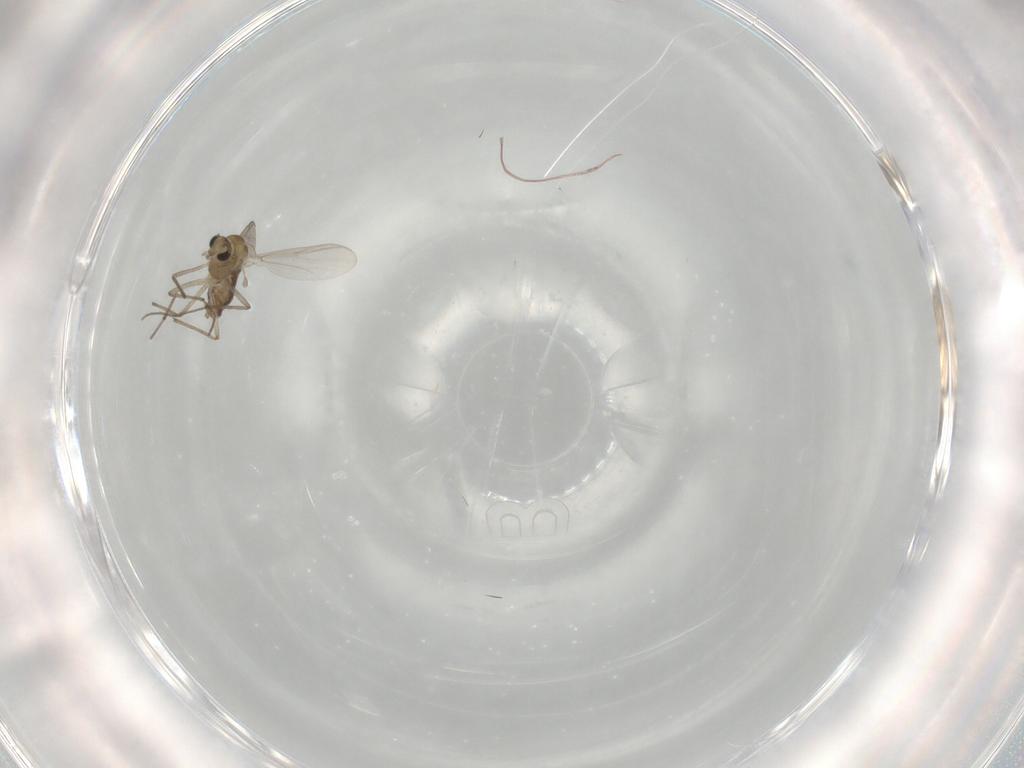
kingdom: Animalia
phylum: Arthropoda
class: Insecta
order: Diptera
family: Chironomidae
